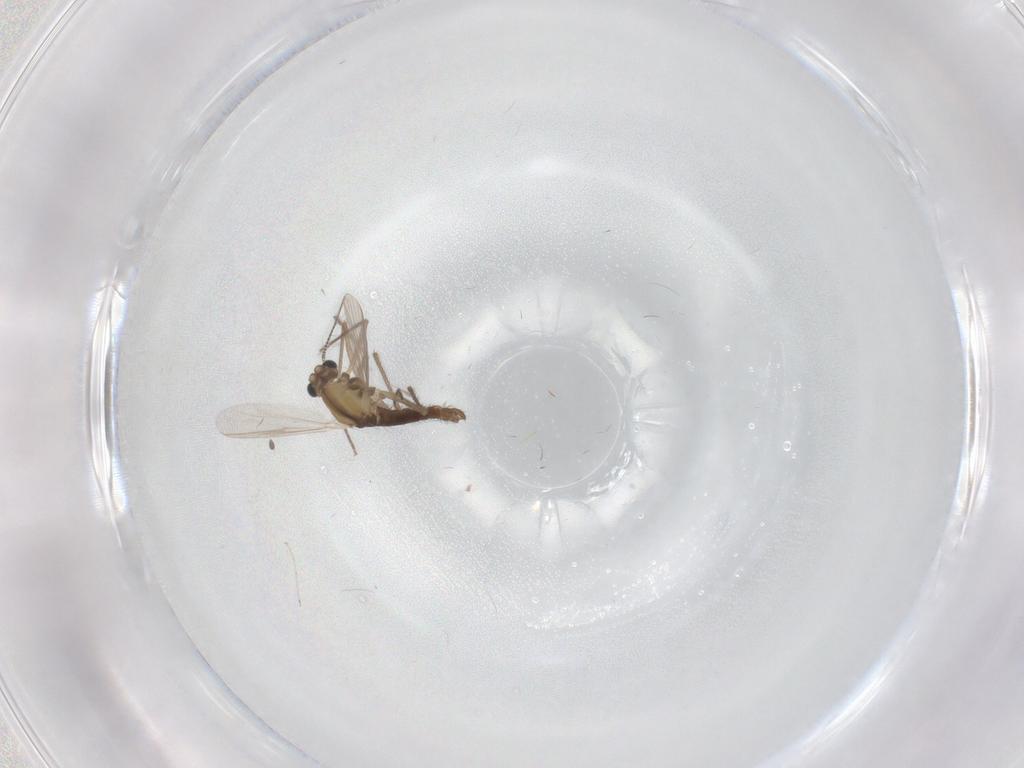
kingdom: Animalia
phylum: Arthropoda
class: Insecta
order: Diptera
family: Chironomidae
